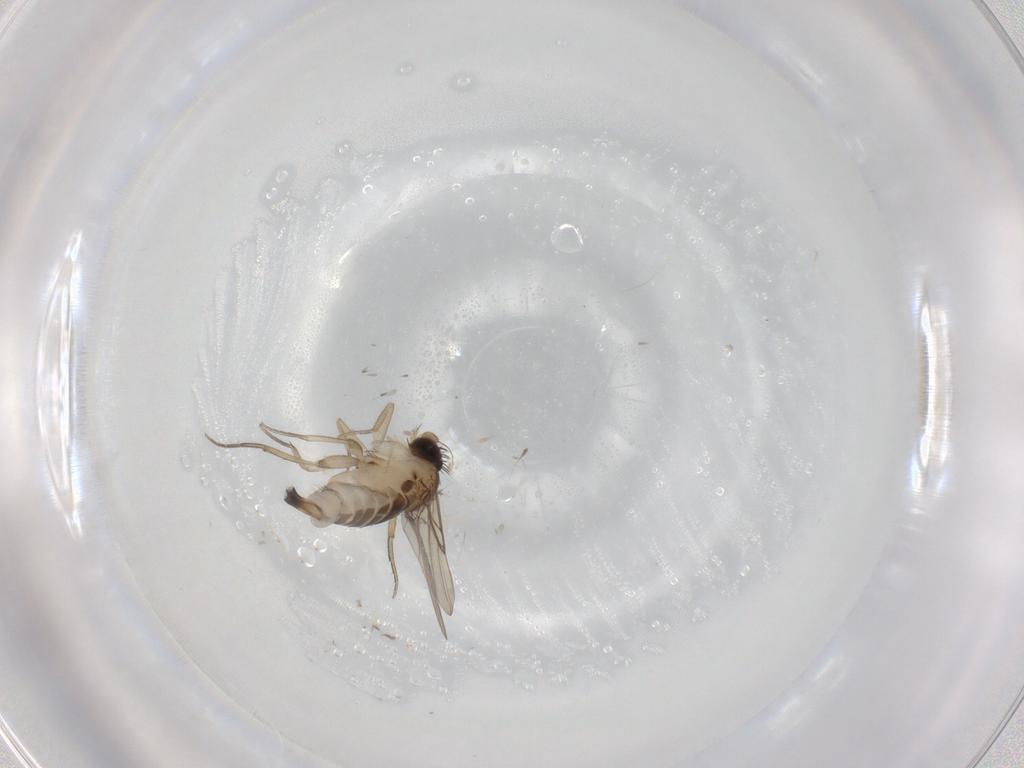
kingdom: Animalia
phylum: Arthropoda
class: Insecta
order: Diptera
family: Phoridae
